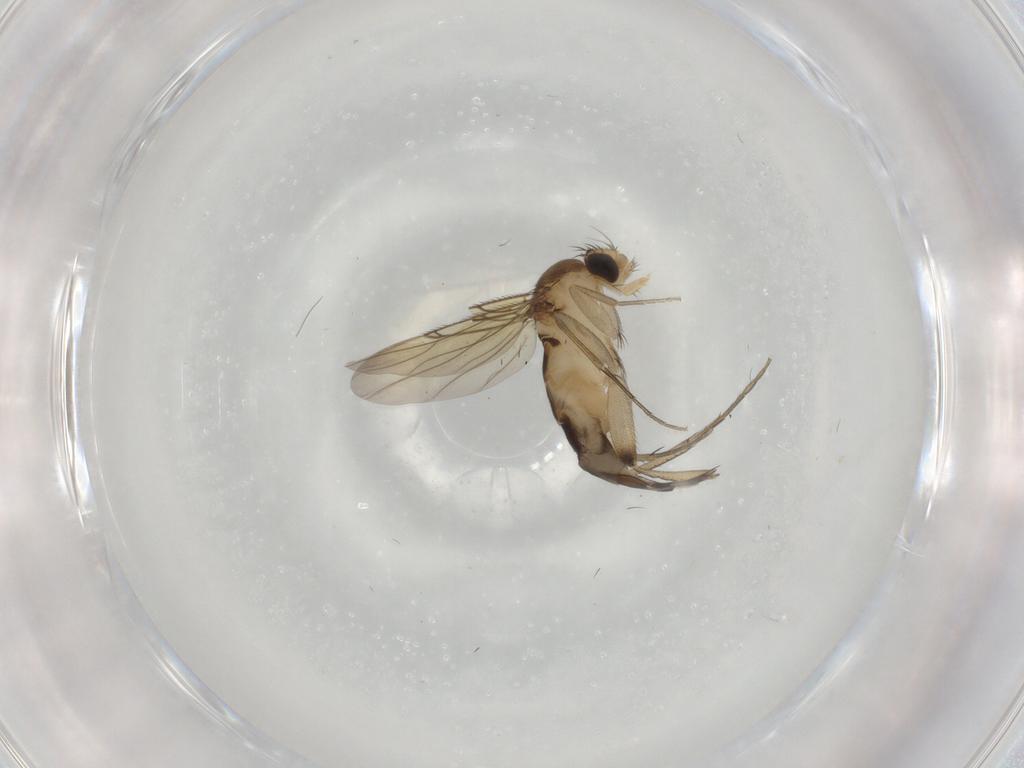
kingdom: Animalia
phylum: Arthropoda
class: Insecta
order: Diptera
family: Phoridae
